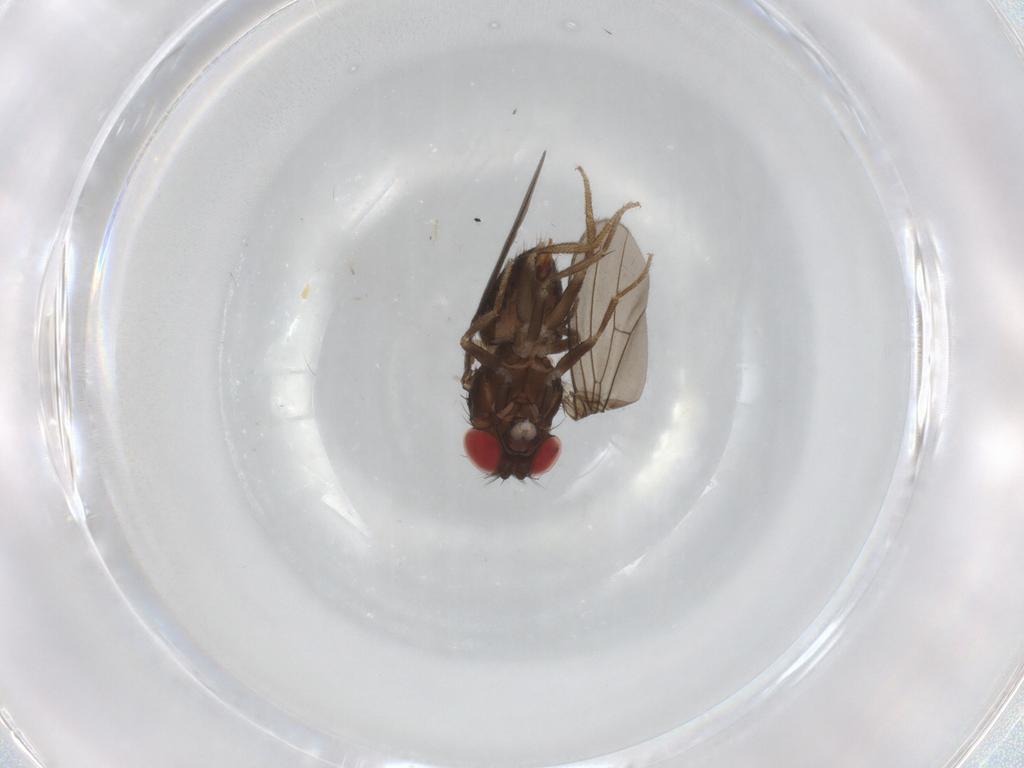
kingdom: Animalia
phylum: Arthropoda
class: Insecta
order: Diptera
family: Drosophilidae
